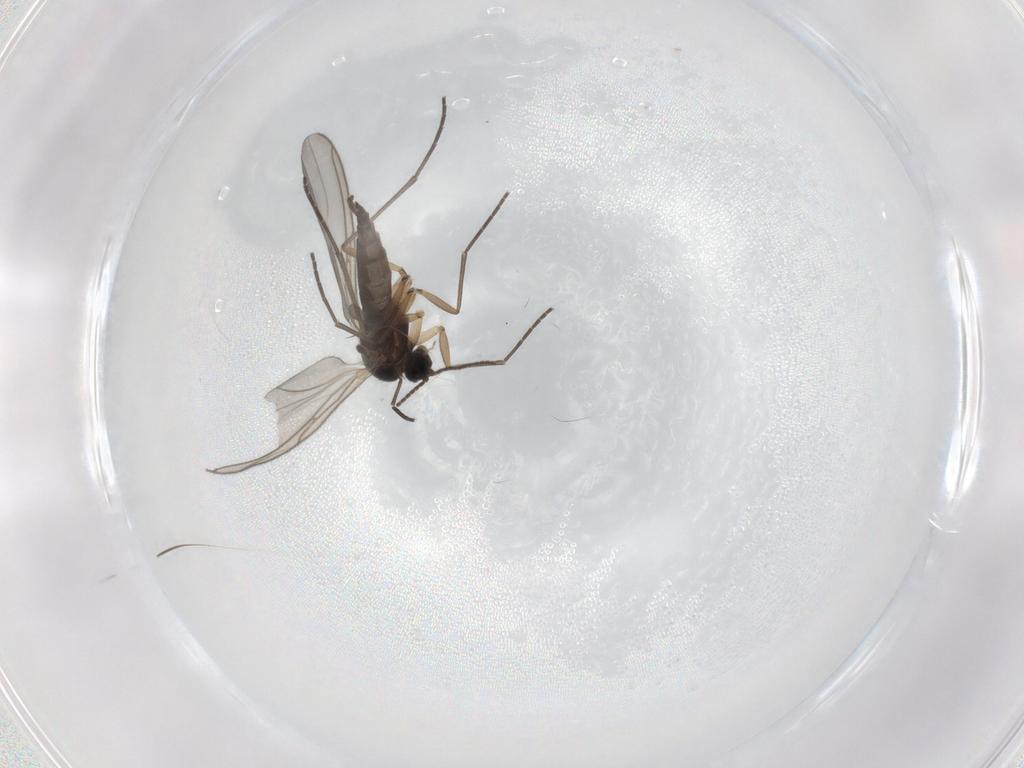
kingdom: Animalia
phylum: Arthropoda
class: Insecta
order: Diptera
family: Sciaridae
